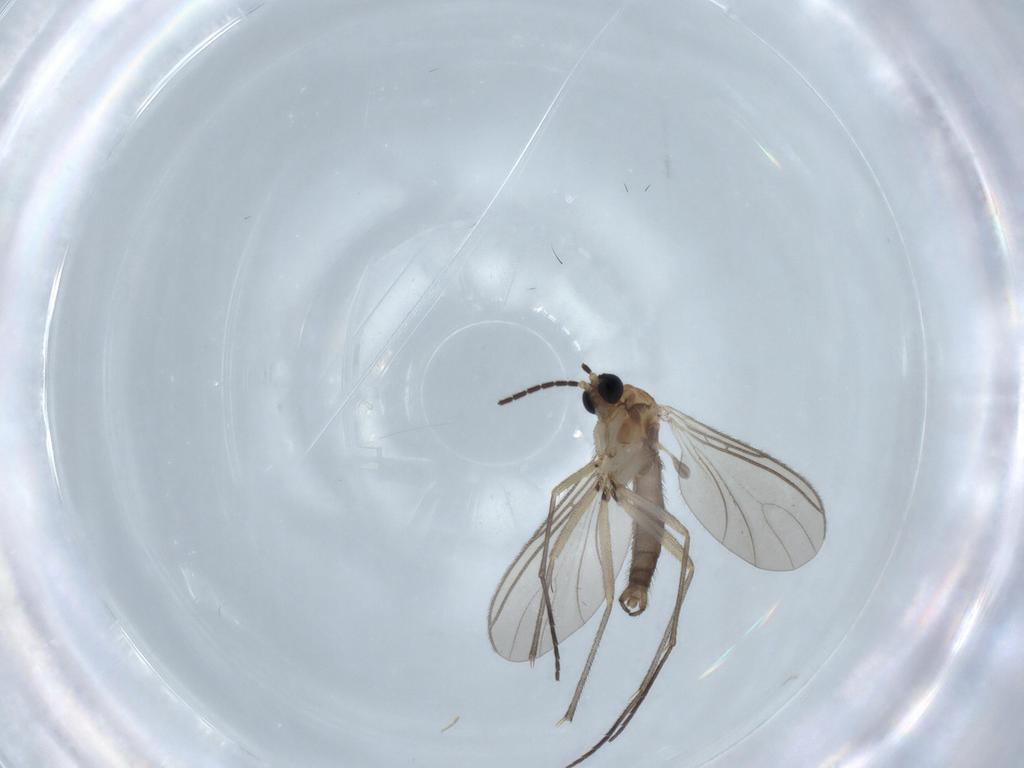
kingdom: Animalia
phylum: Arthropoda
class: Insecta
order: Diptera
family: Sciaridae
